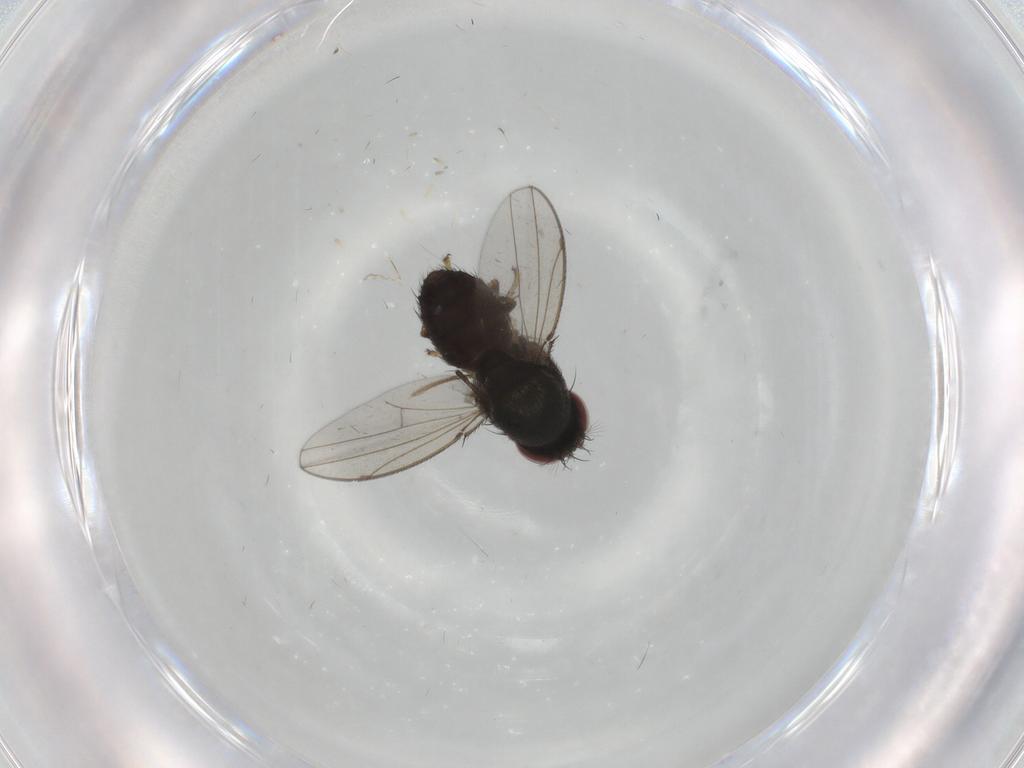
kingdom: Animalia
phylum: Arthropoda
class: Insecta
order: Diptera
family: Ceratopogonidae
